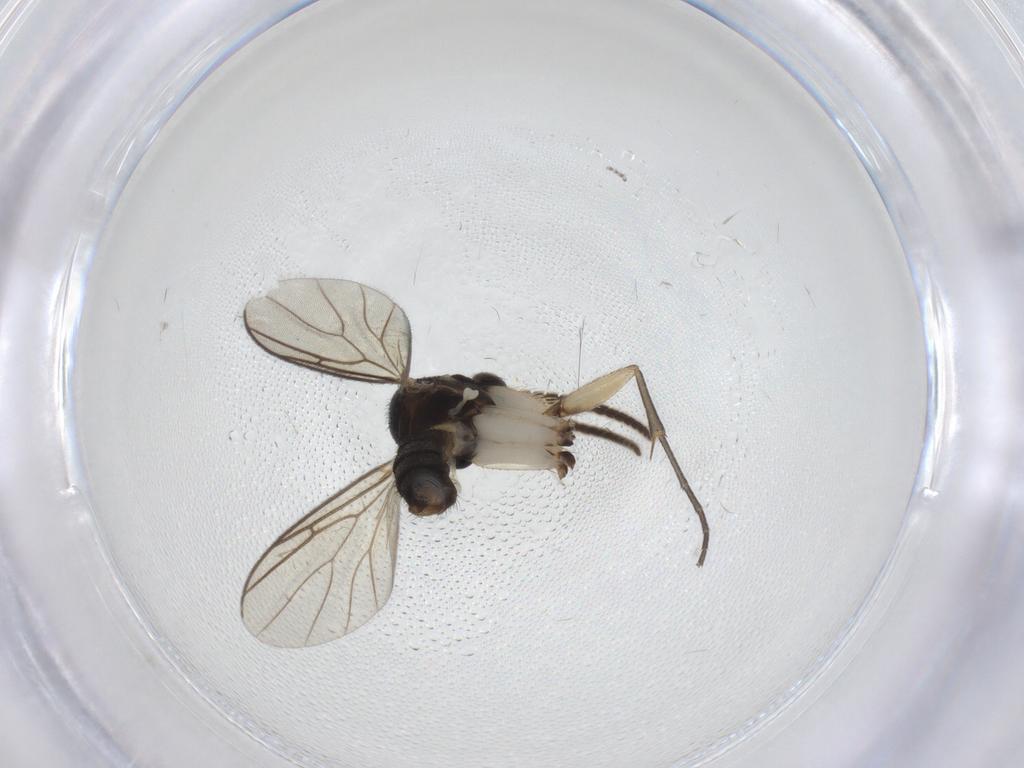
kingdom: Animalia
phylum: Arthropoda
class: Insecta
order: Diptera
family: Mycetophilidae
